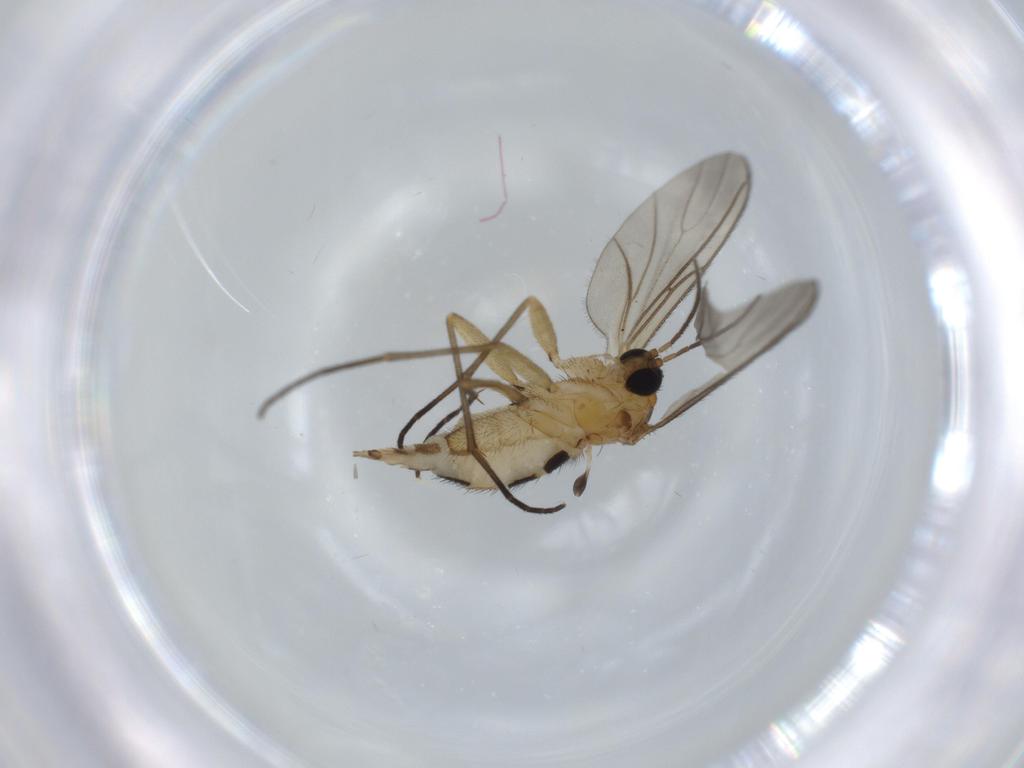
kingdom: Animalia
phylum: Arthropoda
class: Insecta
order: Diptera
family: Sciaridae
